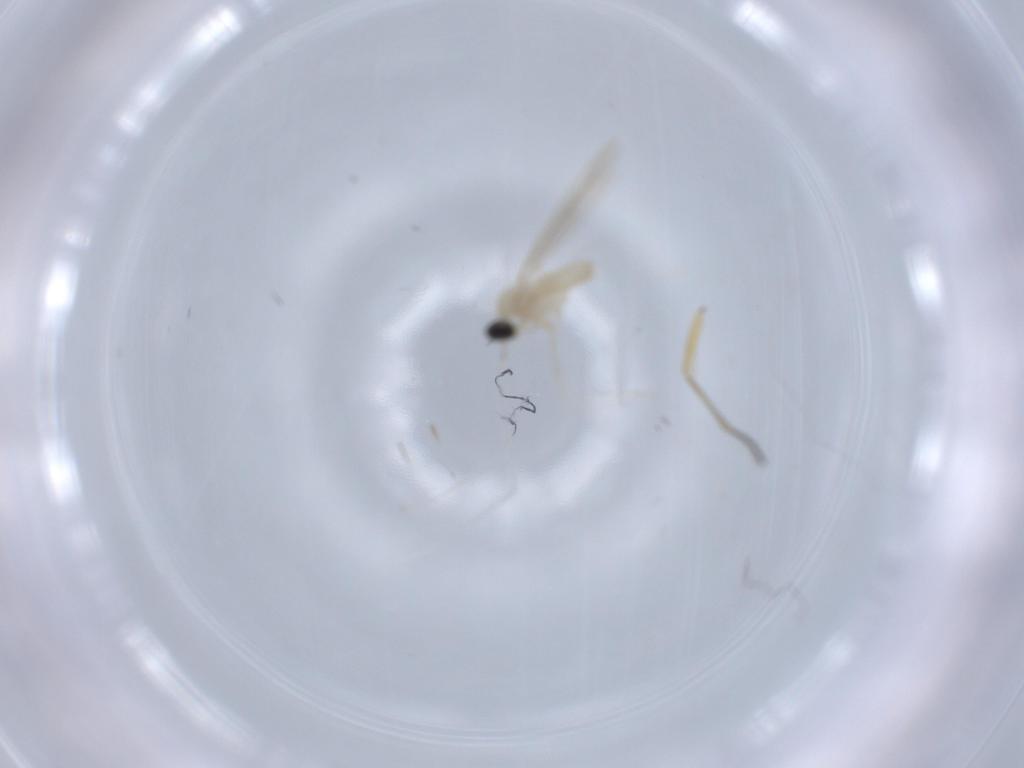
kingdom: Animalia
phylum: Arthropoda
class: Insecta
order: Diptera
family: Cecidomyiidae
